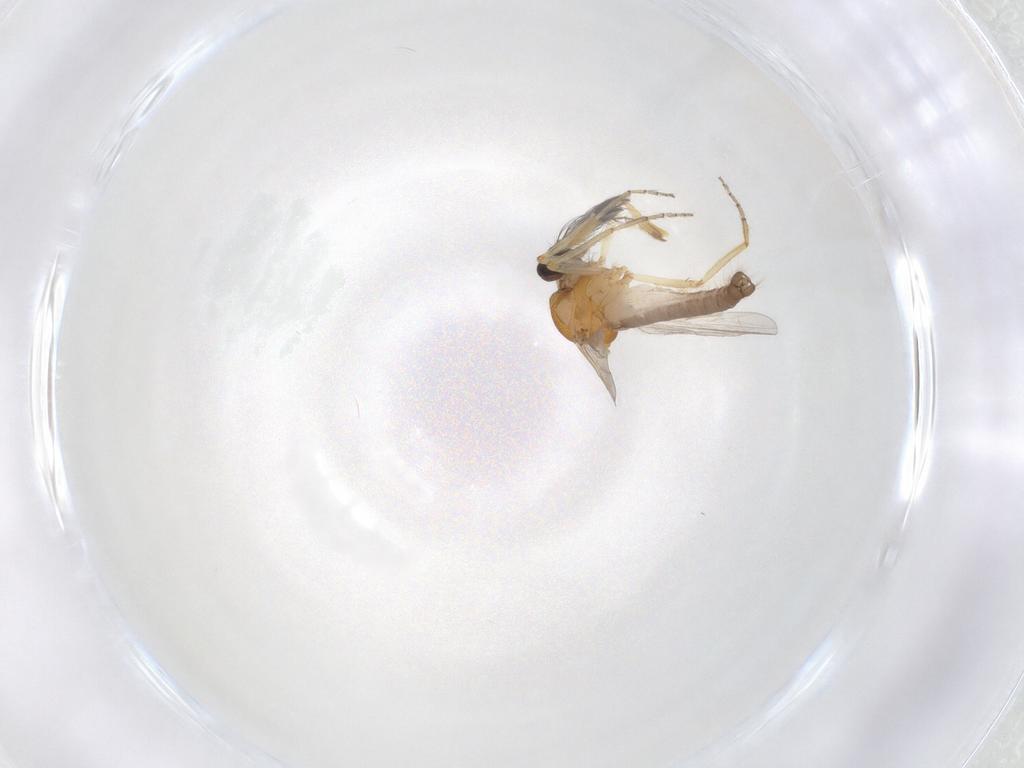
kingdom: Animalia
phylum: Arthropoda
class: Insecta
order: Diptera
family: Ceratopogonidae
